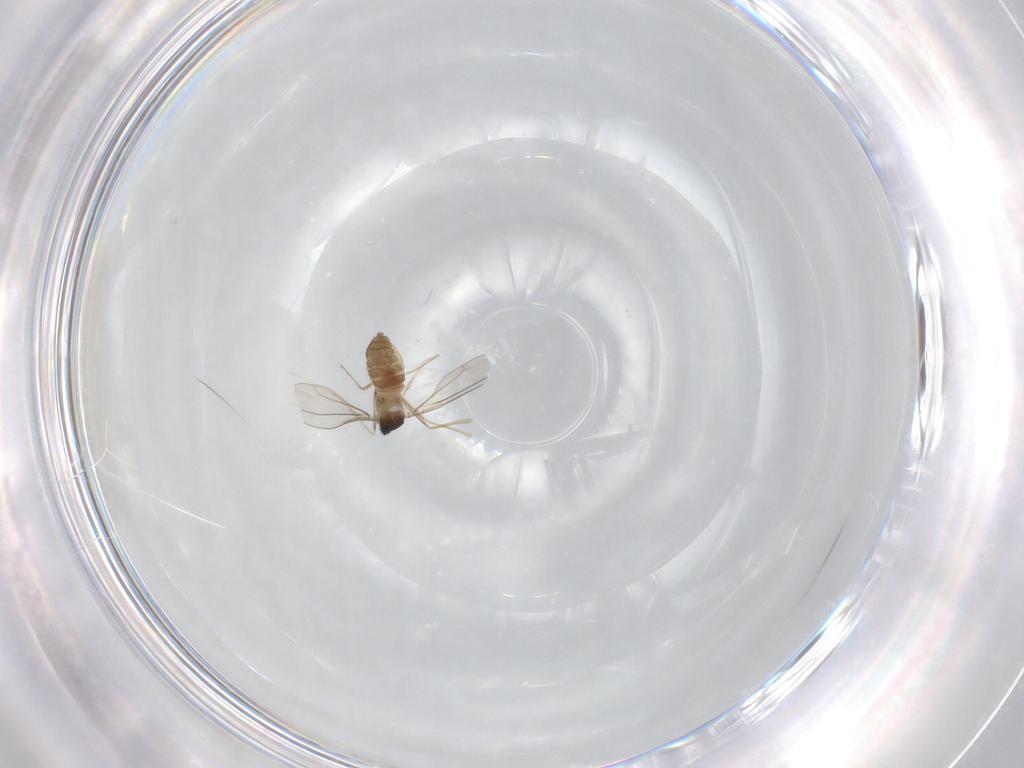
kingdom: Animalia
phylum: Arthropoda
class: Insecta
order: Diptera
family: Cecidomyiidae
